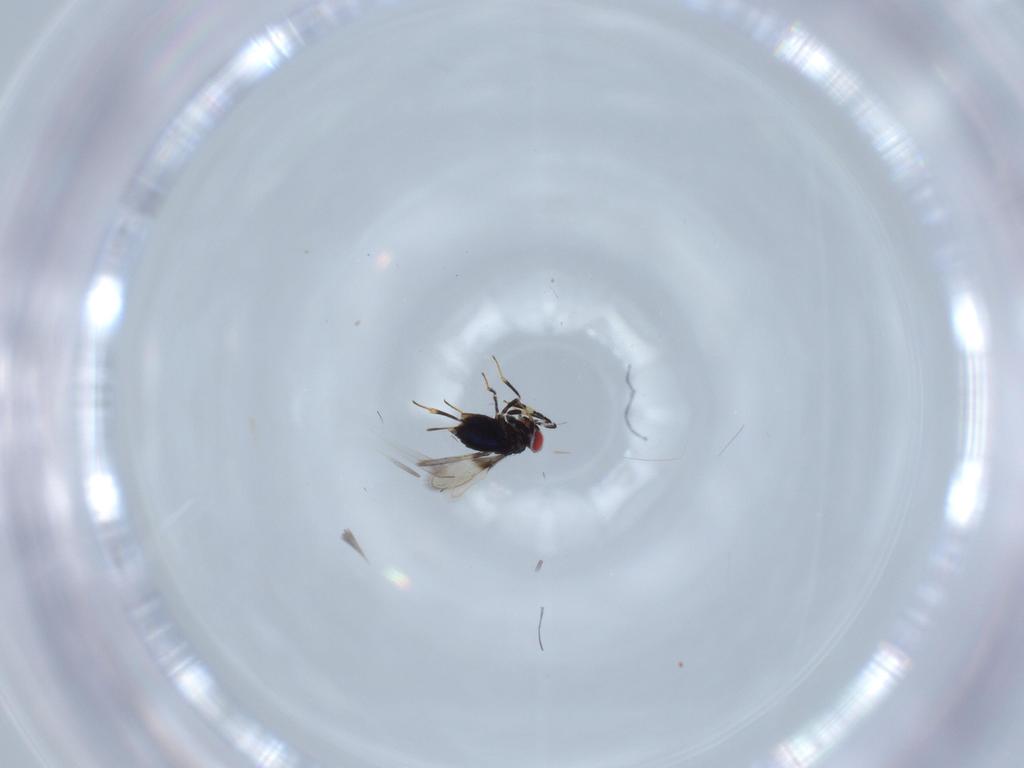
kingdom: Animalia
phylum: Arthropoda
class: Insecta
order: Hymenoptera
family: Azotidae
